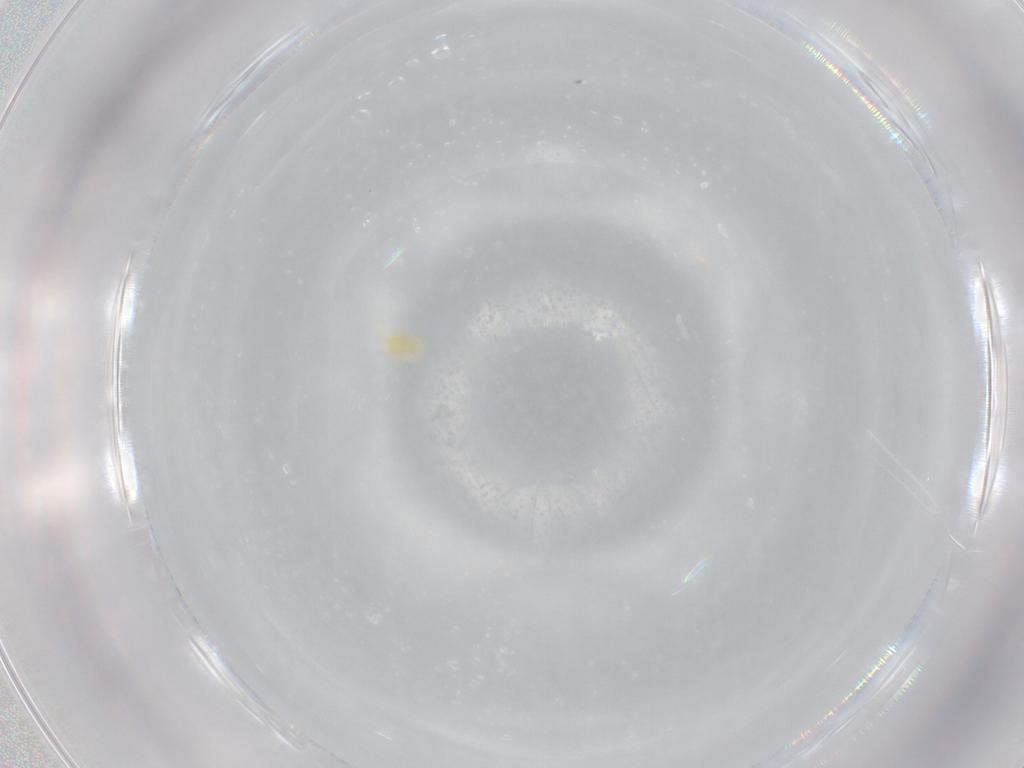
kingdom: Animalia
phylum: Arthropoda
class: Arachnida
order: Trombidiformes
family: Tetranychidae
